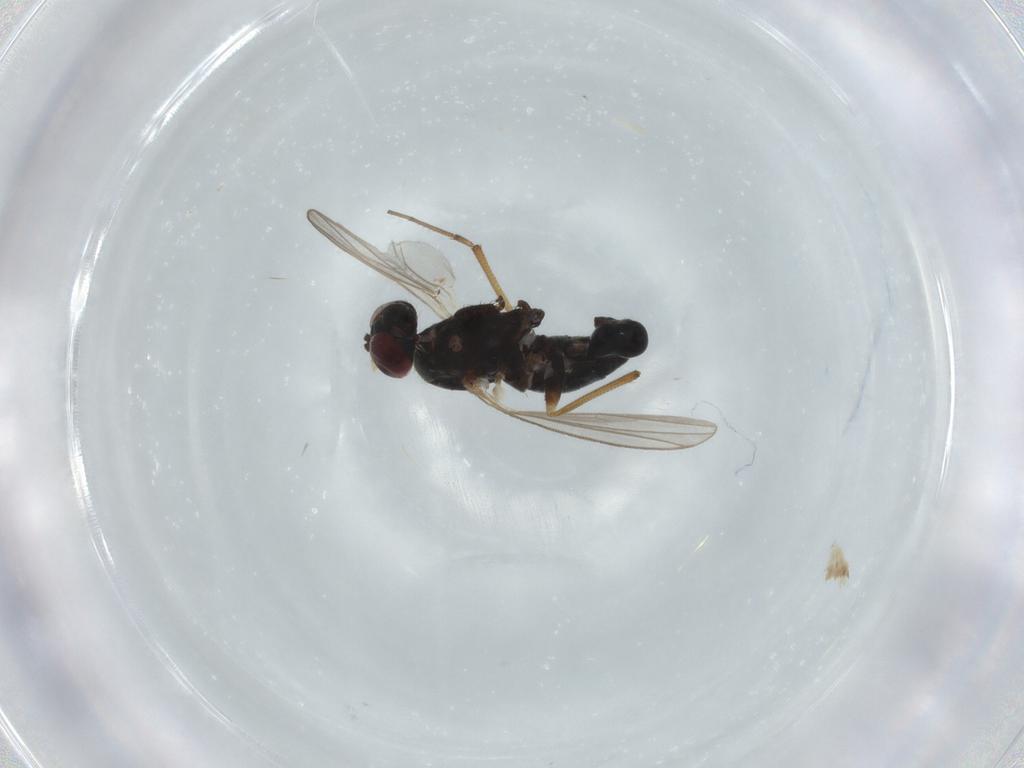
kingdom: Animalia
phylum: Arthropoda
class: Insecta
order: Diptera
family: Dolichopodidae
